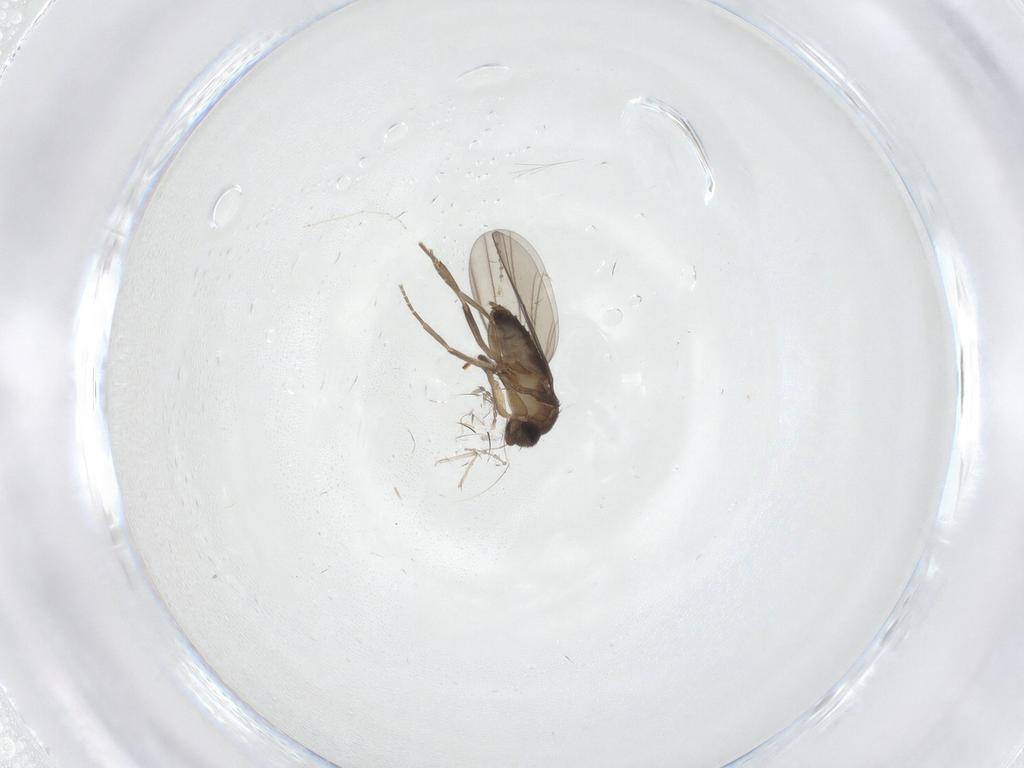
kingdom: Animalia
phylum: Arthropoda
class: Insecta
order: Diptera
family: Cecidomyiidae
